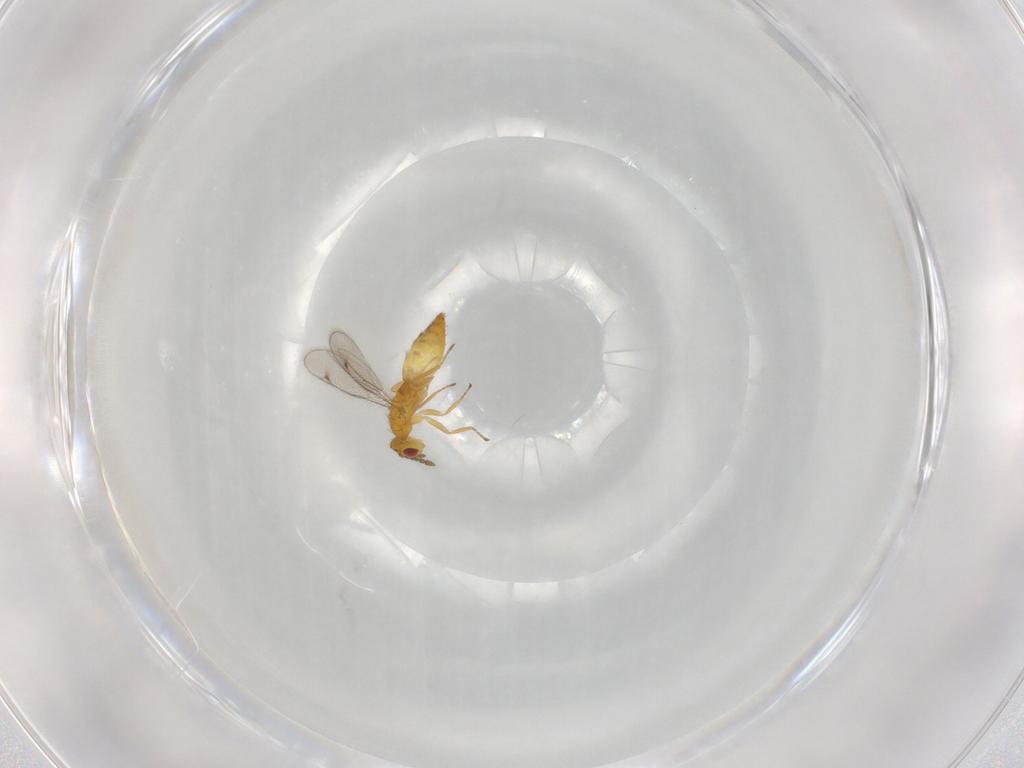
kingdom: Animalia
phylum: Arthropoda
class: Insecta
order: Hymenoptera
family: Eulophidae
